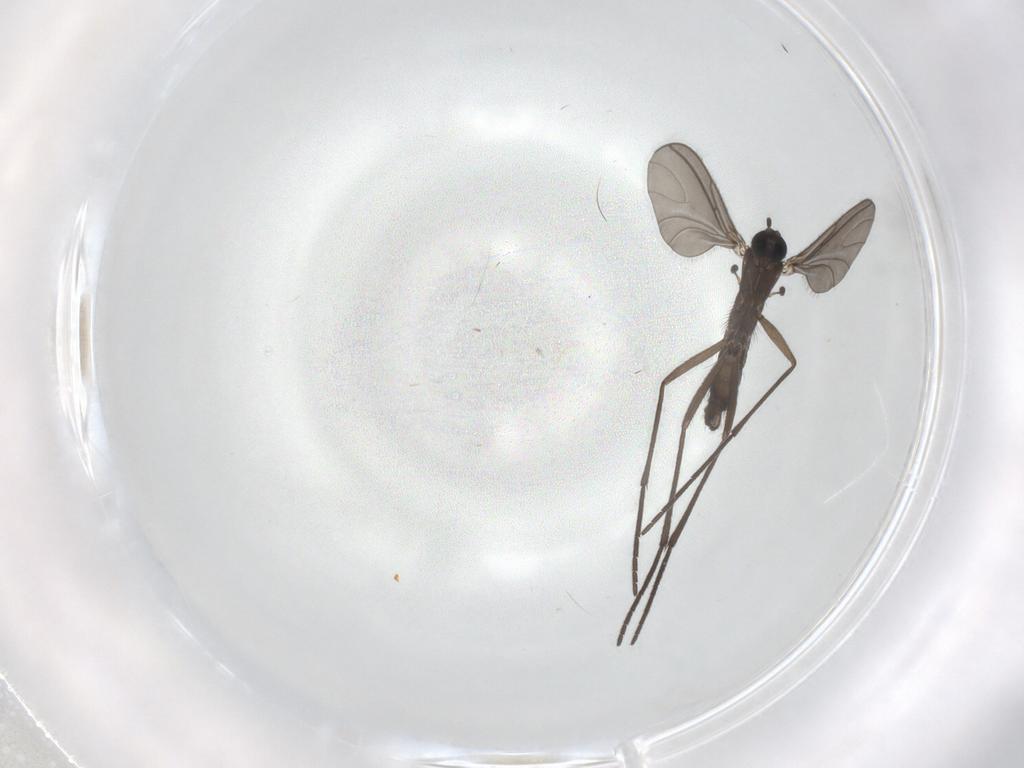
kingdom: Animalia
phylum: Arthropoda
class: Insecta
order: Diptera
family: Sciaridae
